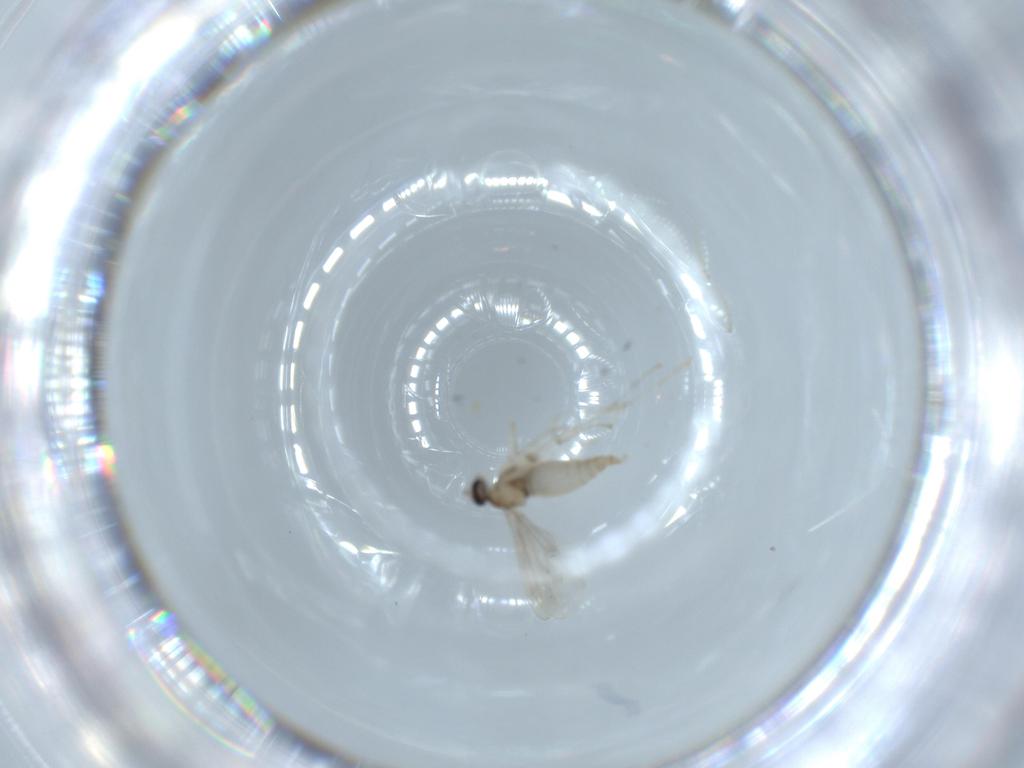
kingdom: Animalia
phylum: Arthropoda
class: Insecta
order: Diptera
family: Cecidomyiidae
